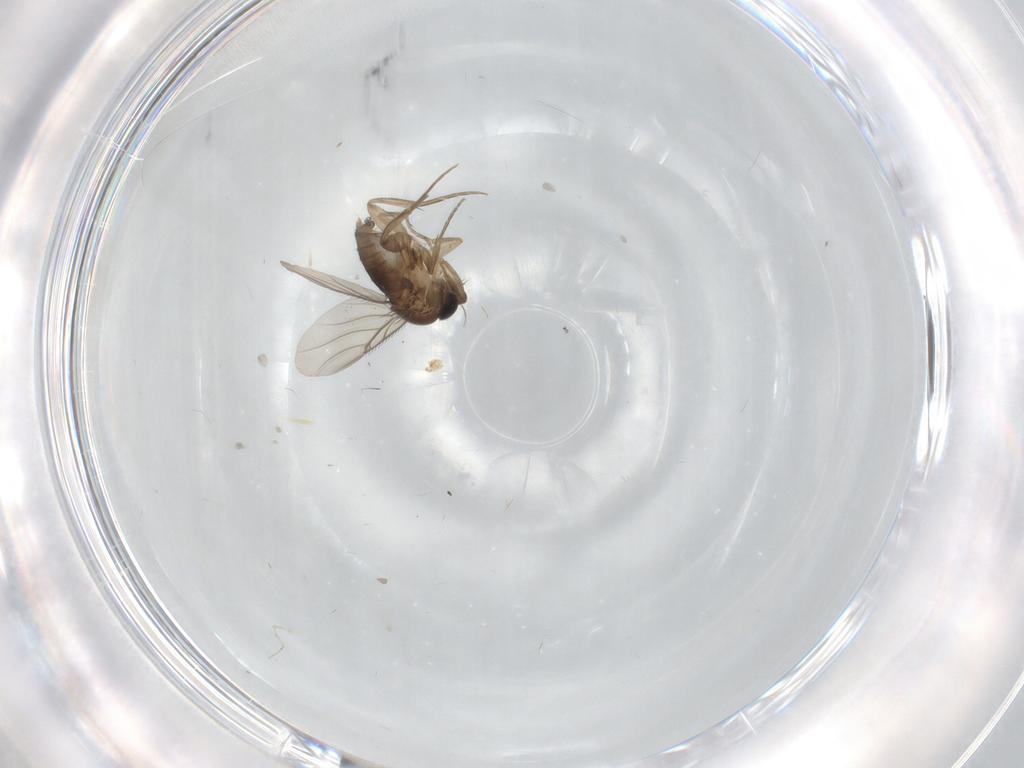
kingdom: Animalia
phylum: Arthropoda
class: Insecta
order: Diptera
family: Phoridae
